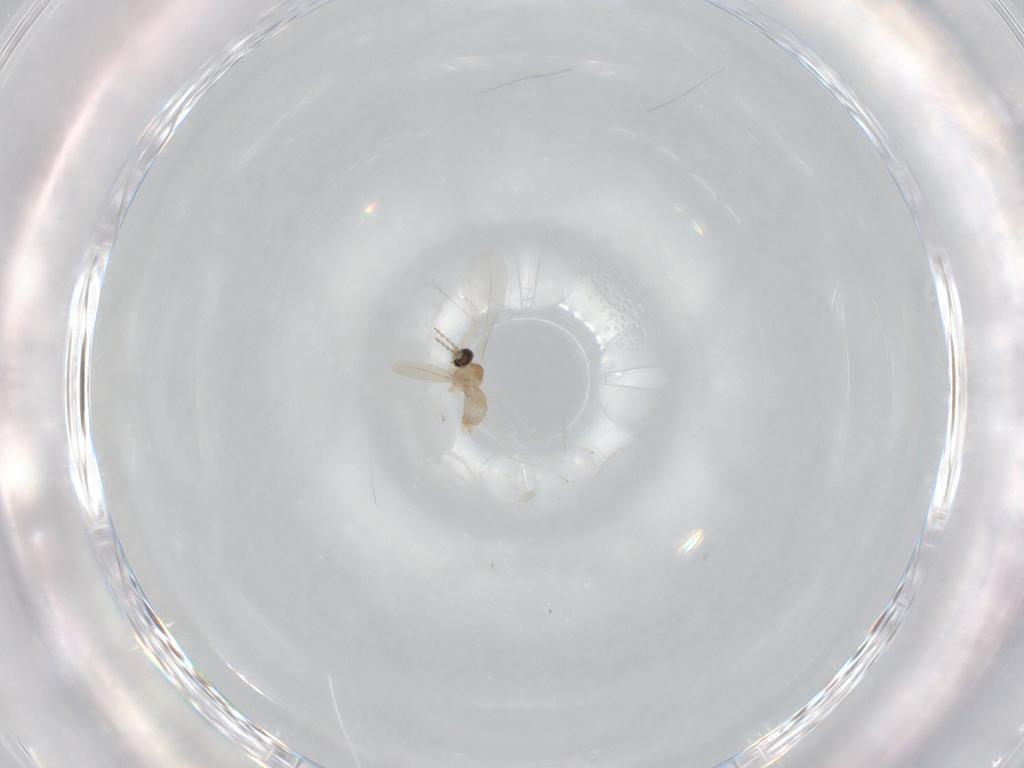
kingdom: Animalia
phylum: Arthropoda
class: Insecta
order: Diptera
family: Cecidomyiidae
